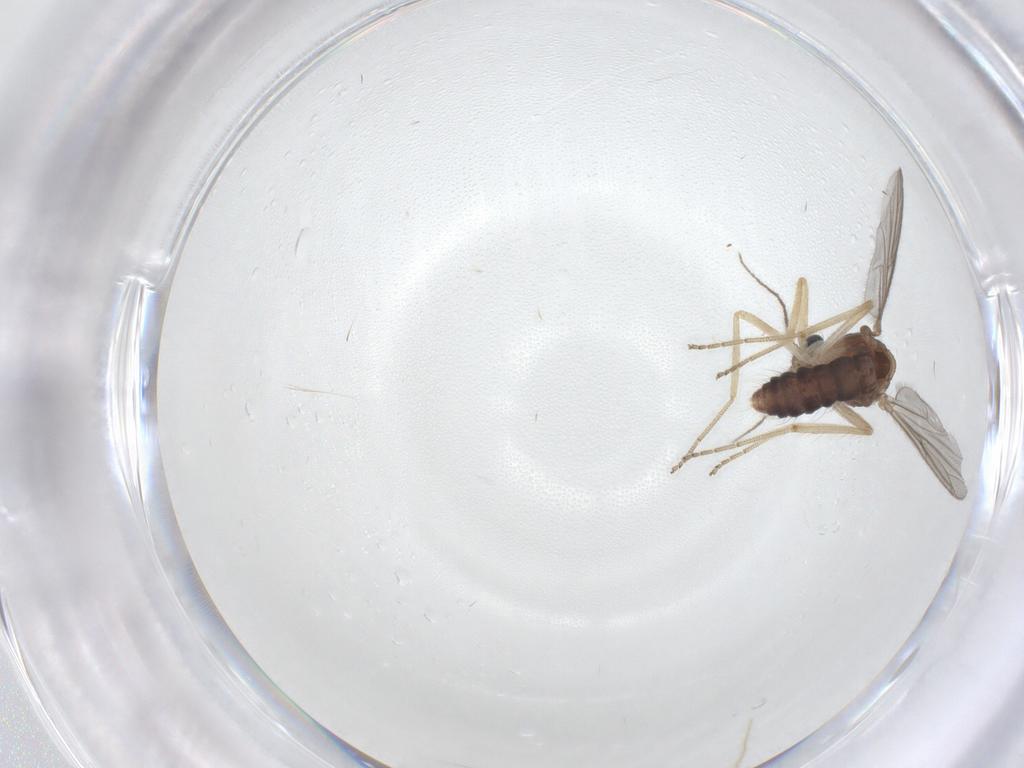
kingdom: Animalia
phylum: Arthropoda
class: Insecta
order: Diptera
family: Ceratopogonidae
